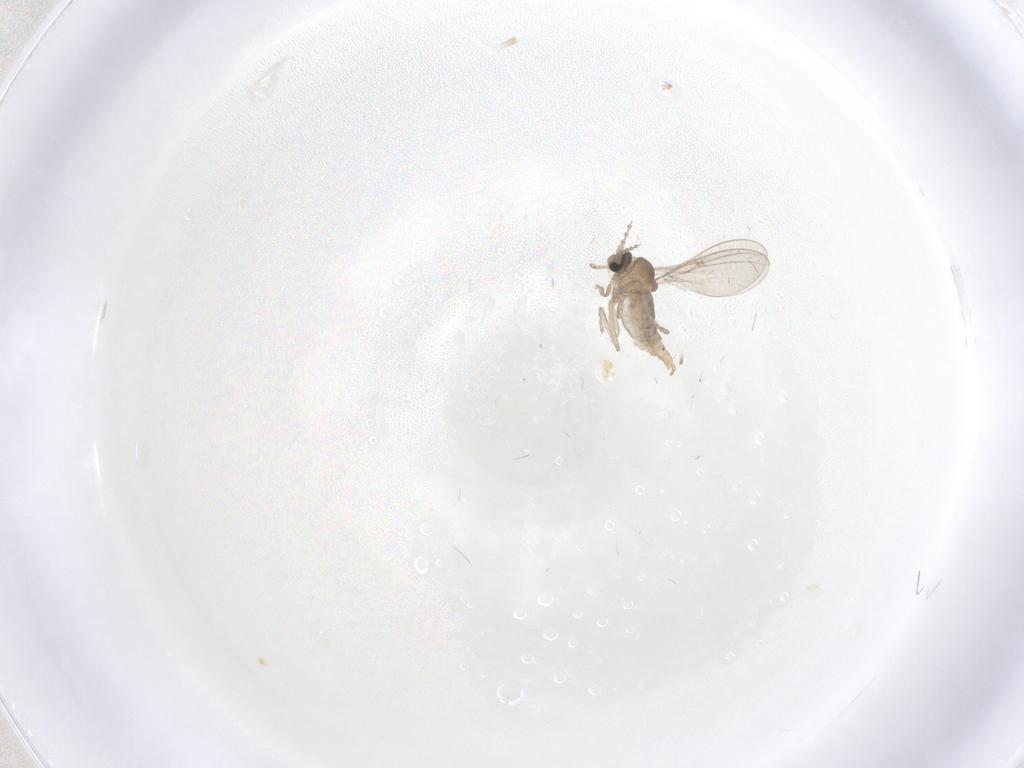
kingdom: Animalia
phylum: Arthropoda
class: Insecta
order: Diptera
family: Cecidomyiidae
